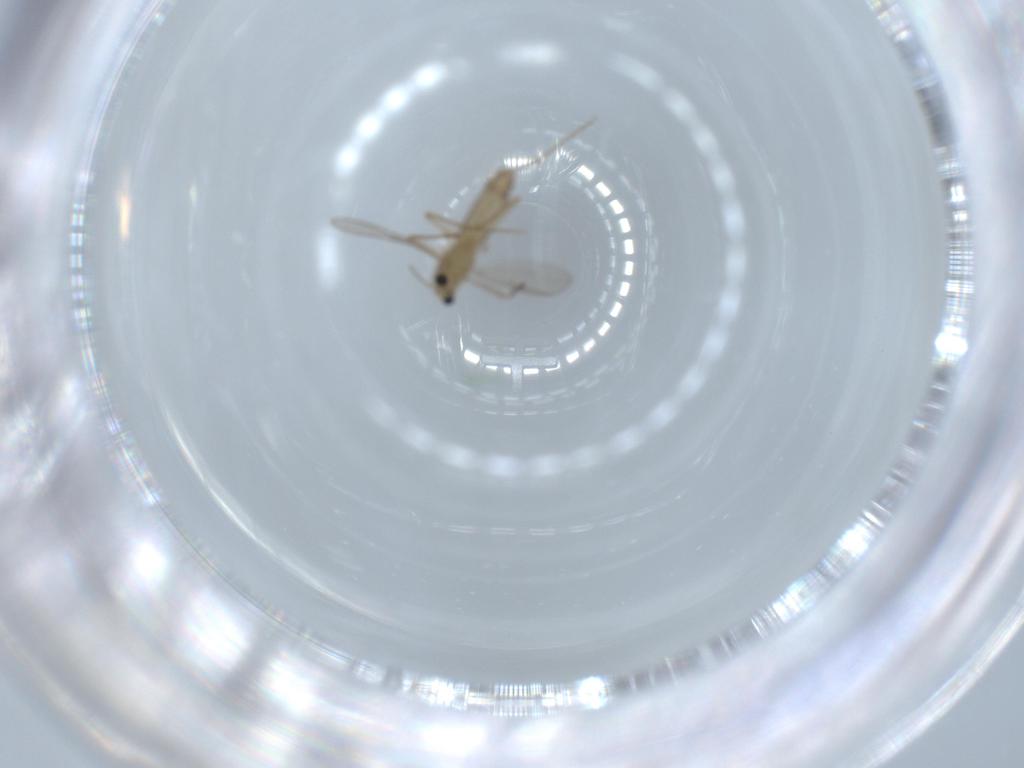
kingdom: Animalia
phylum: Arthropoda
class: Insecta
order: Diptera
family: Chironomidae
